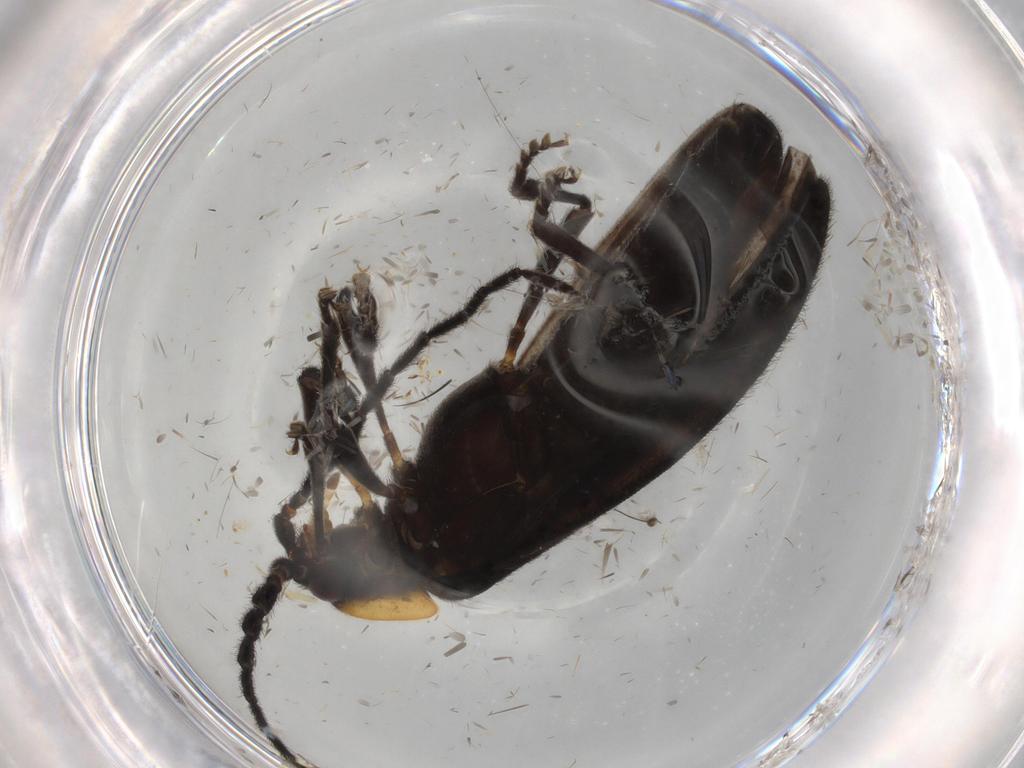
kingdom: Animalia
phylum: Arthropoda
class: Insecta
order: Coleoptera
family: Lycidae
